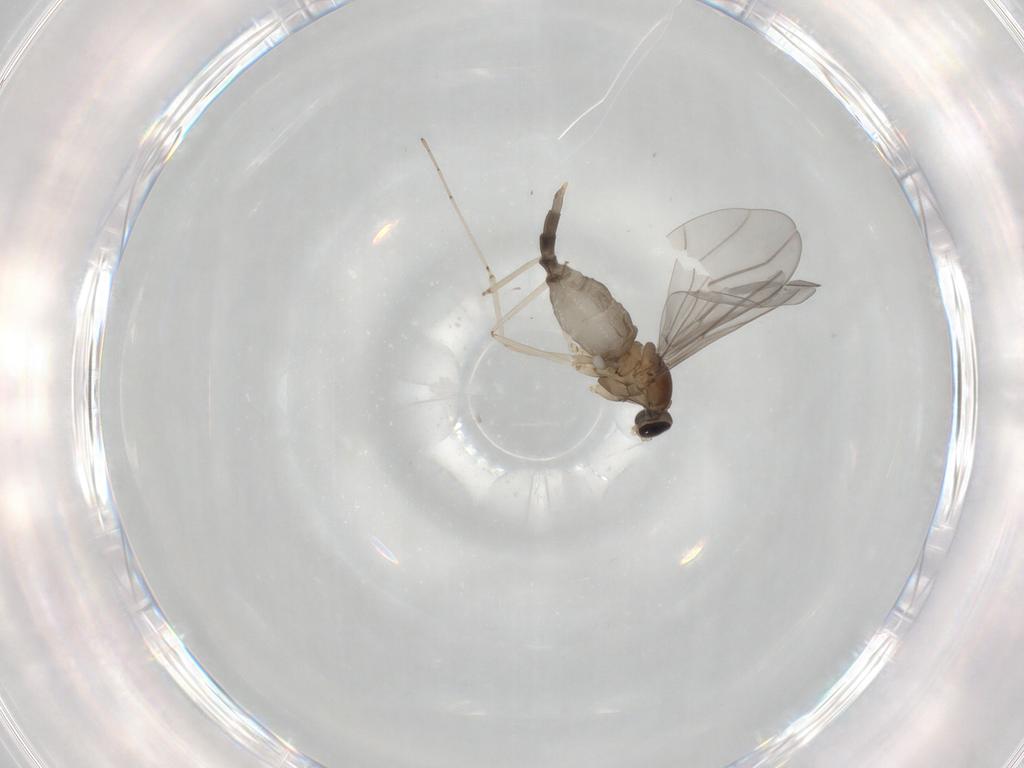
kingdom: Animalia
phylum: Arthropoda
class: Insecta
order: Diptera
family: Cecidomyiidae
